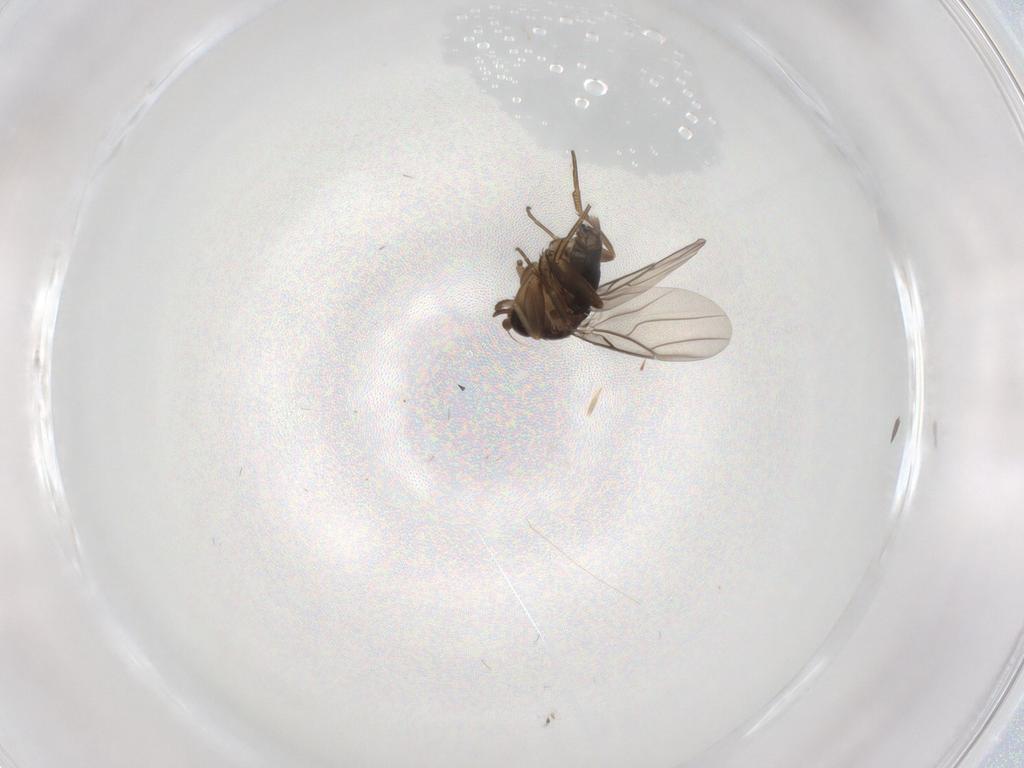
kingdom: Animalia
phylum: Arthropoda
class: Insecta
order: Diptera
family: Phoridae
